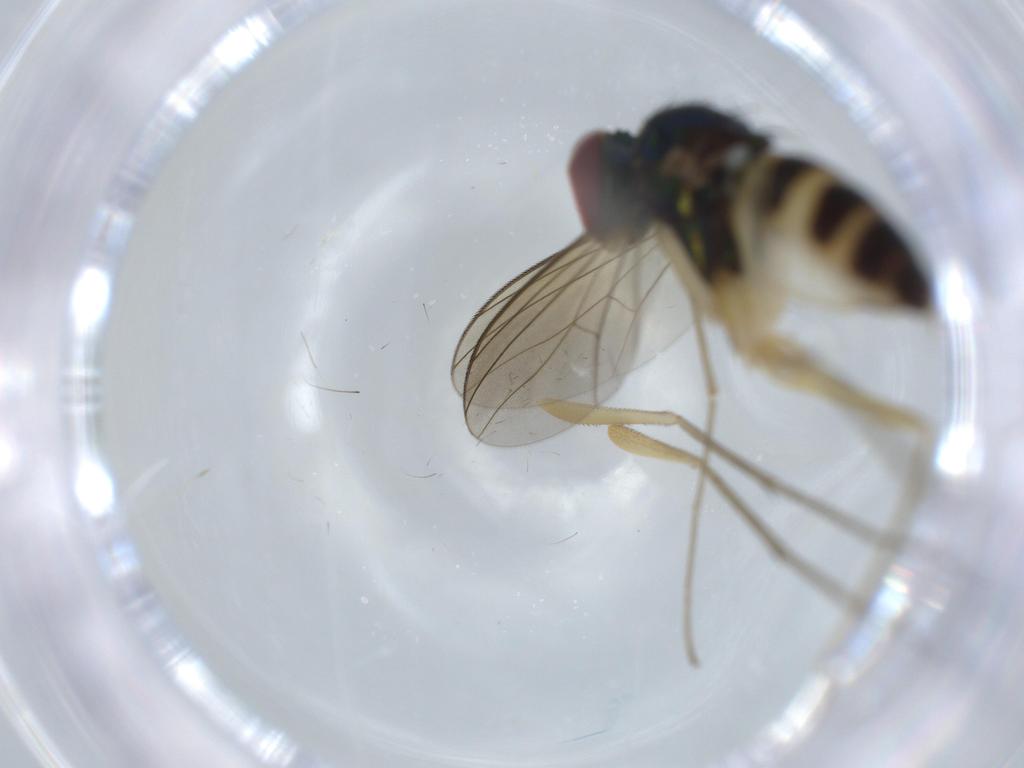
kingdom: Animalia
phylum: Arthropoda
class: Insecta
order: Diptera
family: Dolichopodidae
